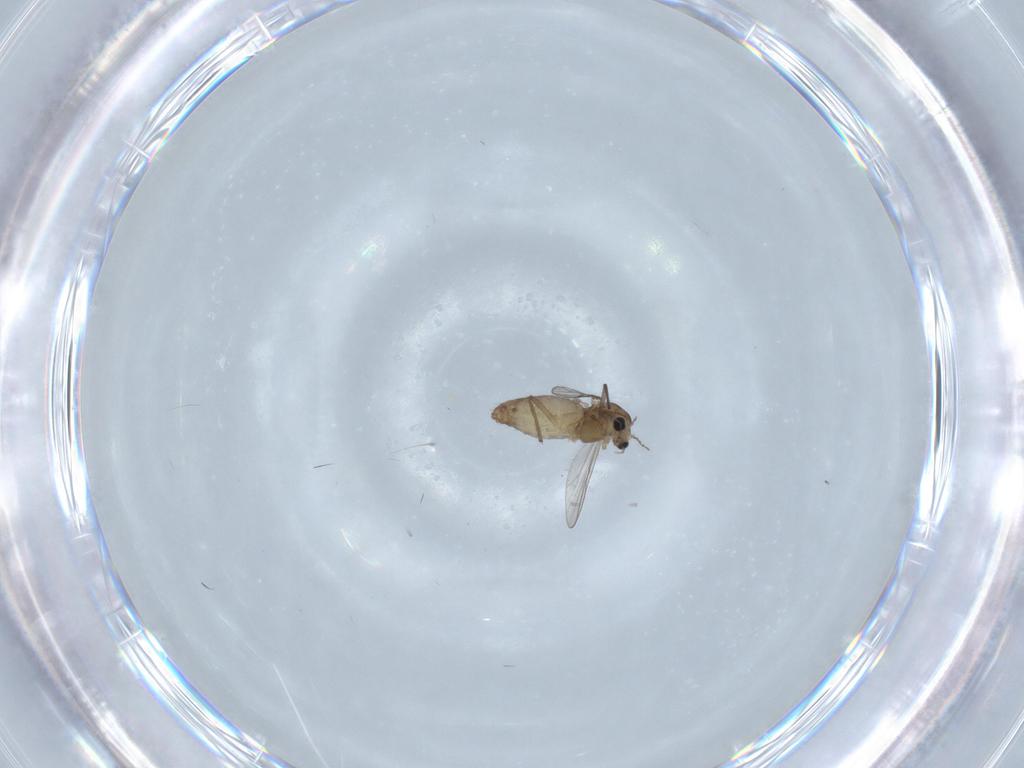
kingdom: Animalia
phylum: Arthropoda
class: Insecta
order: Diptera
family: Chironomidae
